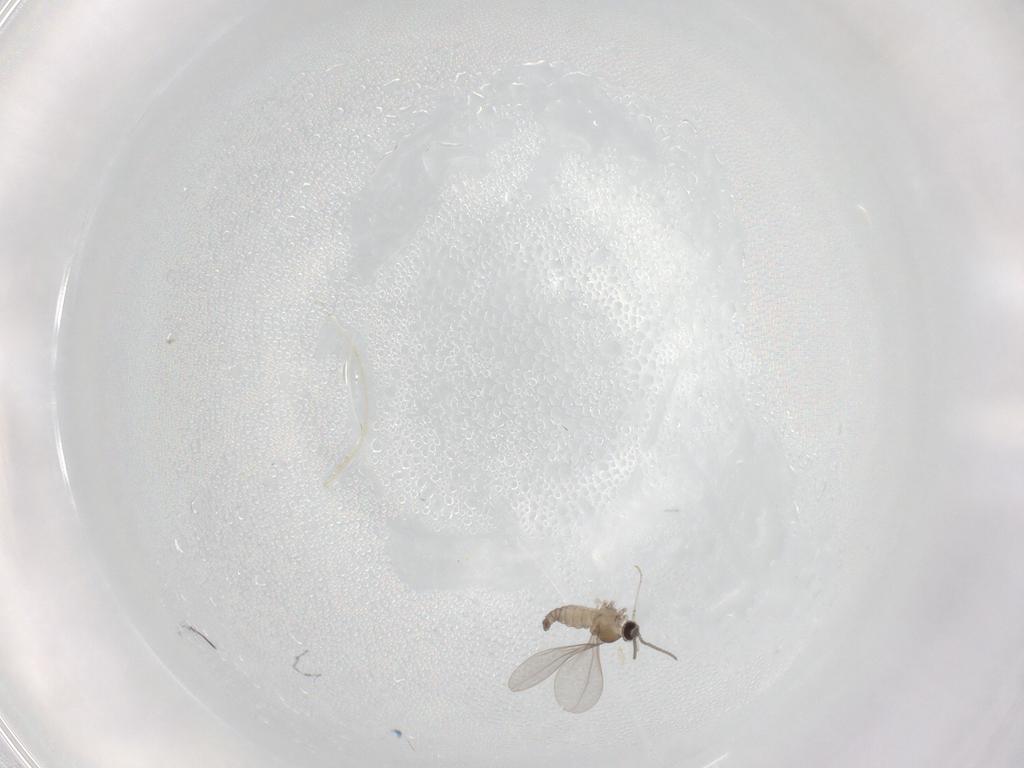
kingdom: Animalia
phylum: Arthropoda
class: Insecta
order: Diptera
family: Cecidomyiidae
